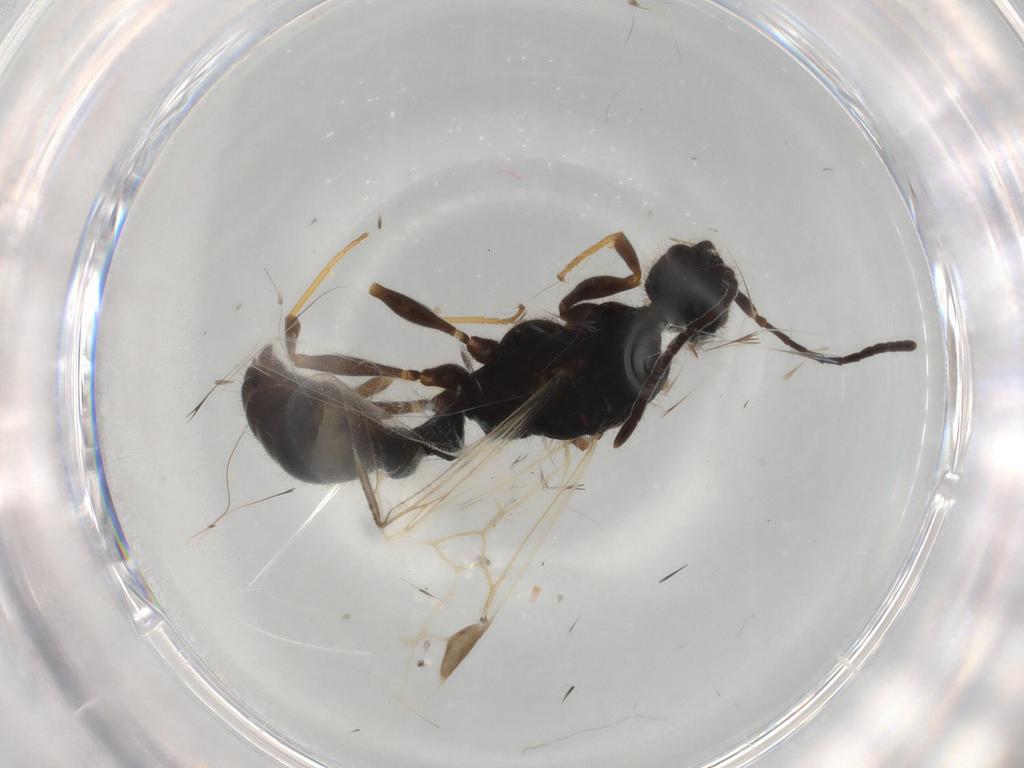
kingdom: Animalia
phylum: Arthropoda
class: Insecta
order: Hymenoptera
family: Formicidae
